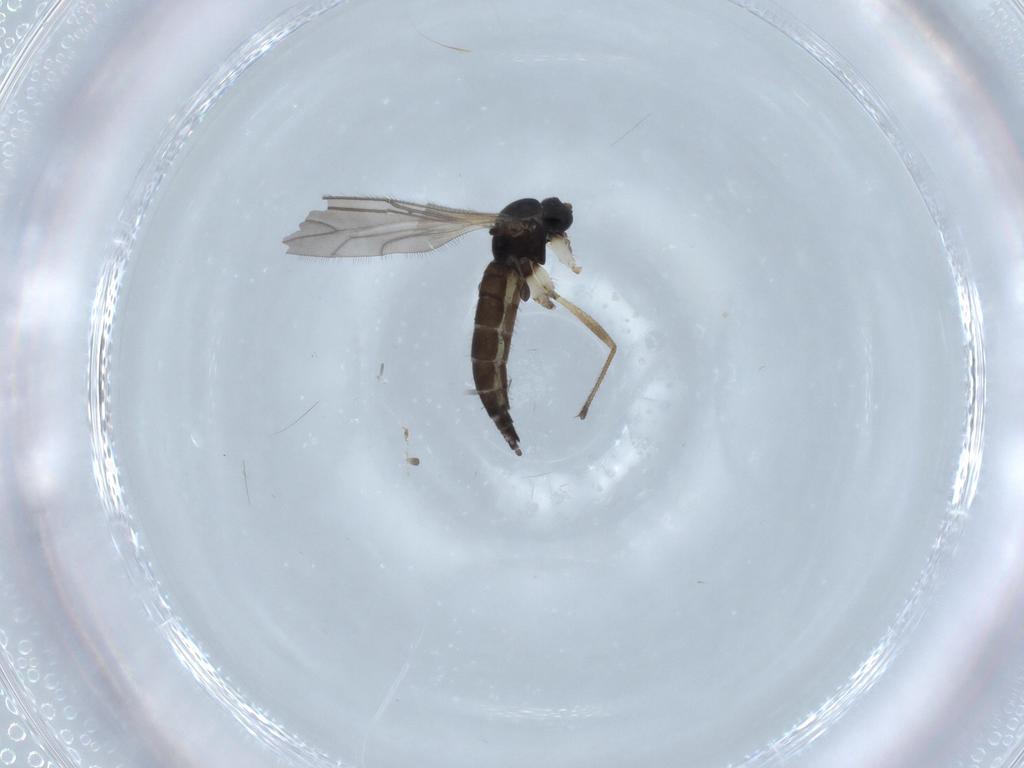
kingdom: Animalia
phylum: Arthropoda
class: Insecta
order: Diptera
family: Sciaridae
